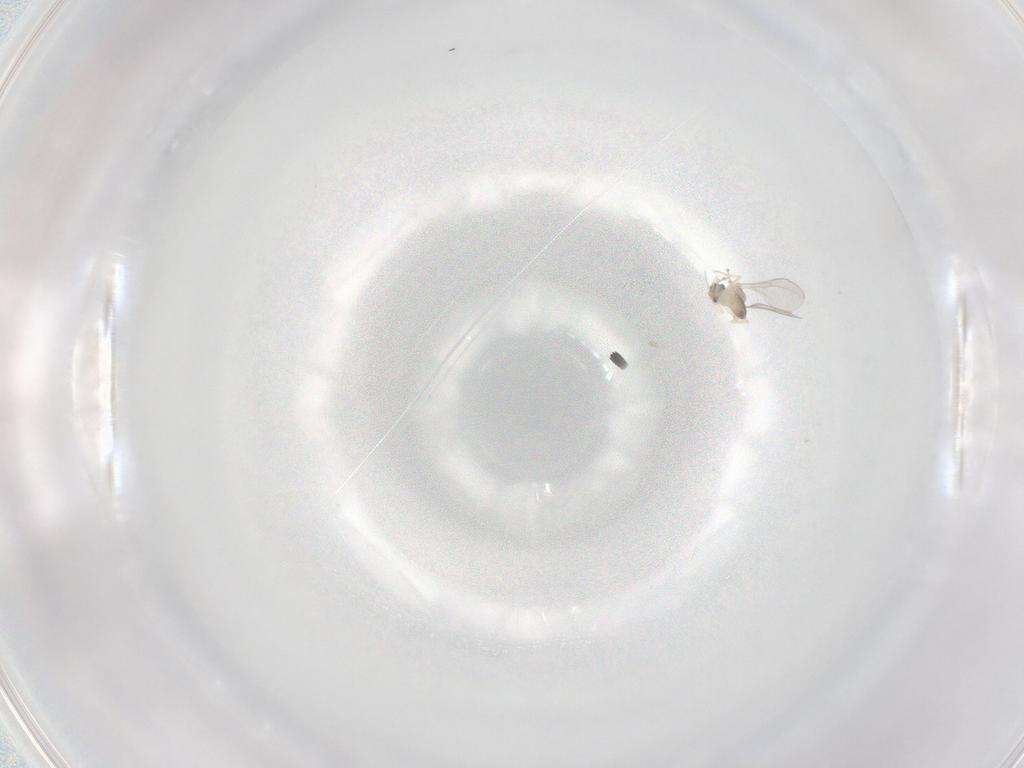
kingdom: Animalia
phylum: Arthropoda
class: Insecta
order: Diptera
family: Cecidomyiidae
